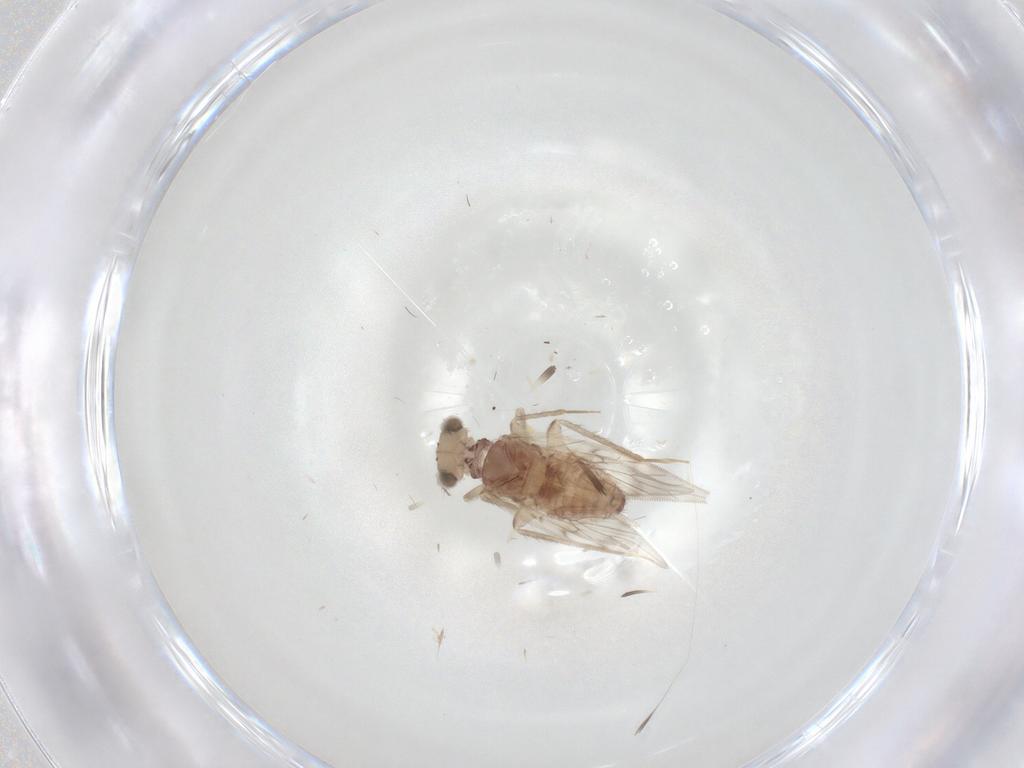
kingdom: Animalia
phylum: Arthropoda
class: Insecta
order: Psocodea
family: Lepidopsocidae
